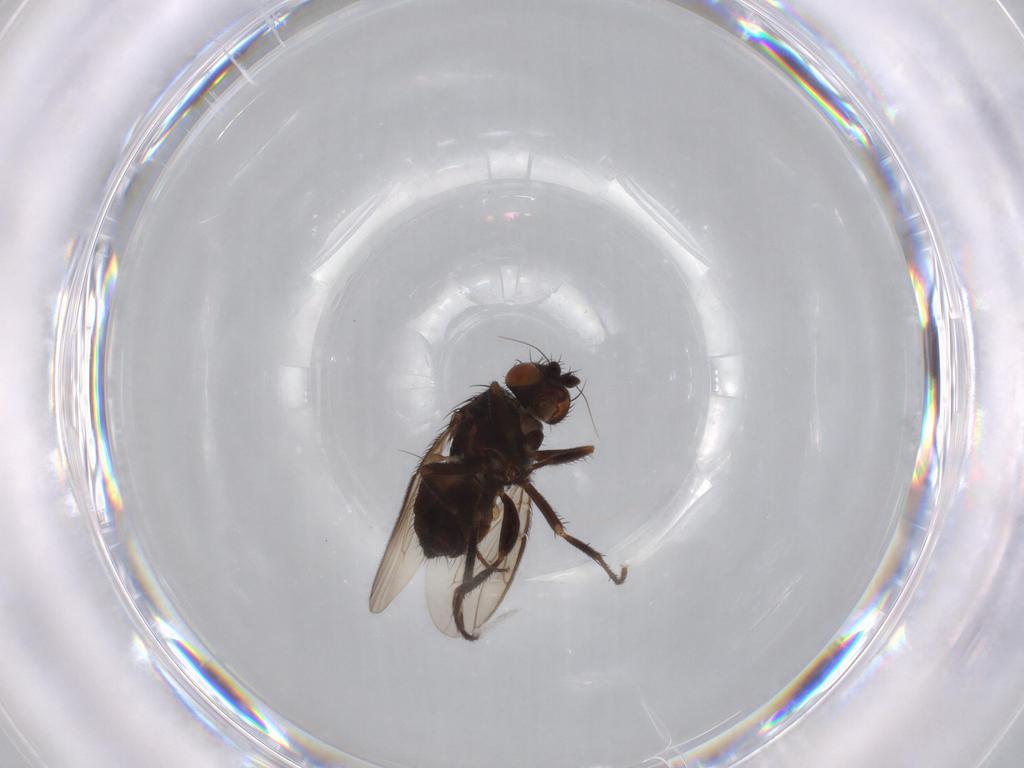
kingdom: Animalia
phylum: Arthropoda
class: Insecta
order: Diptera
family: Sphaeroceridae
